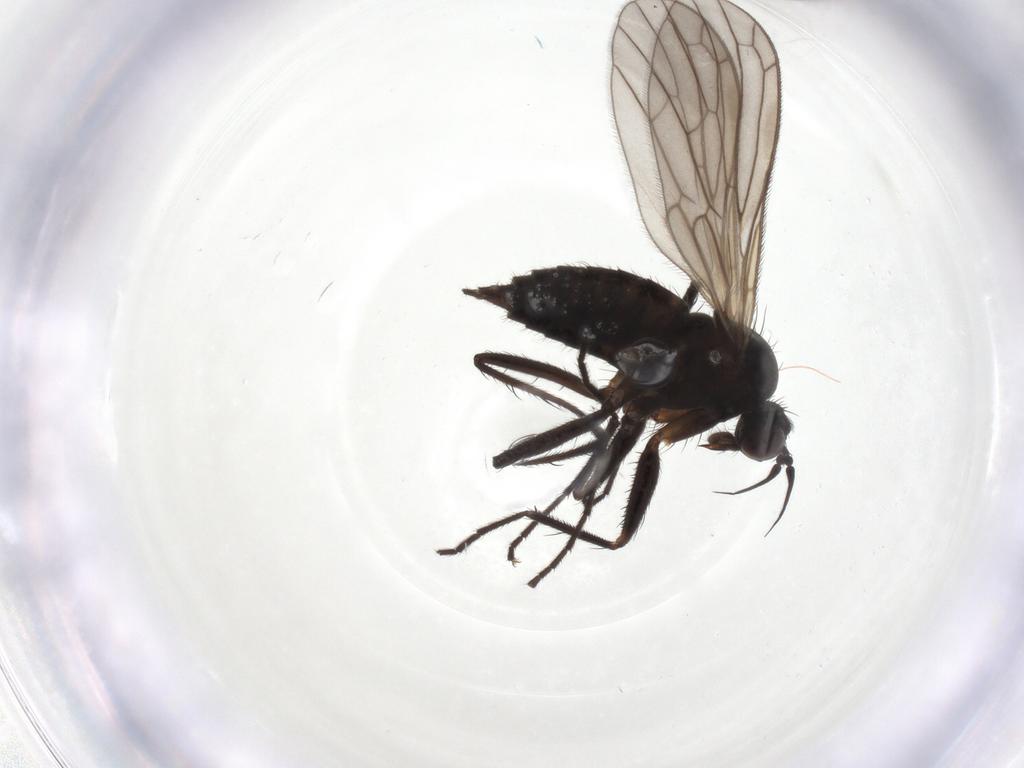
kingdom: Animalia
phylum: Arthropoda
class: Insecta
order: Diptera
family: Empididae
